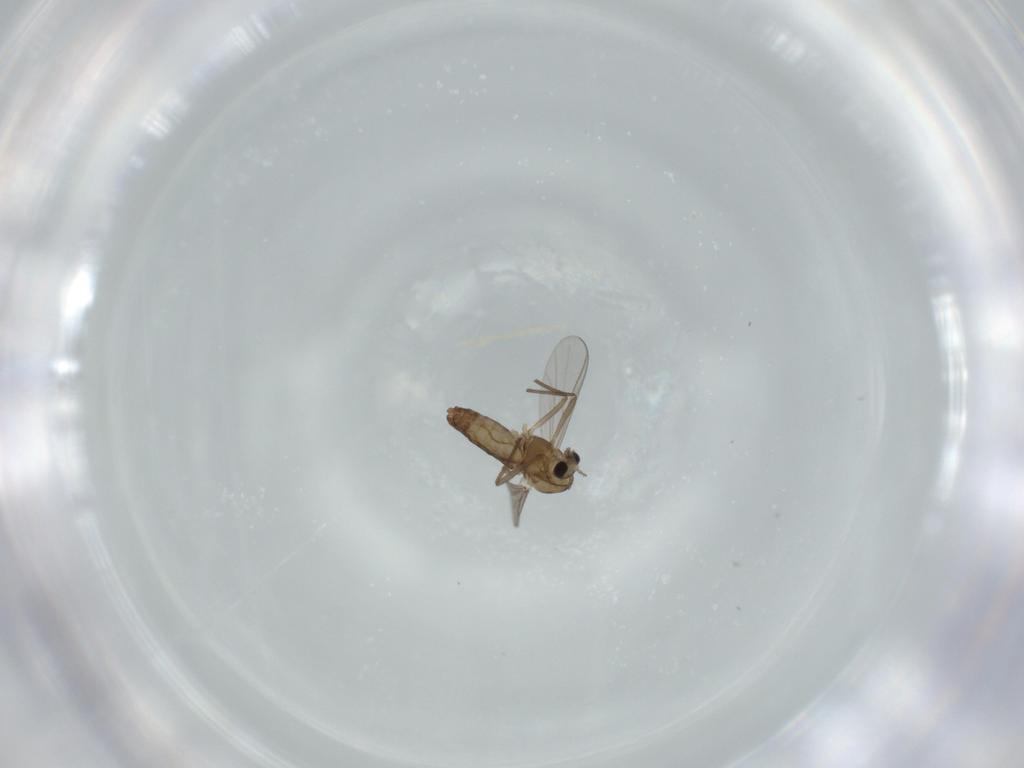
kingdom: Animalia
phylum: Arthropoda
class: Insecta
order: Diptera
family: Chironomidae
